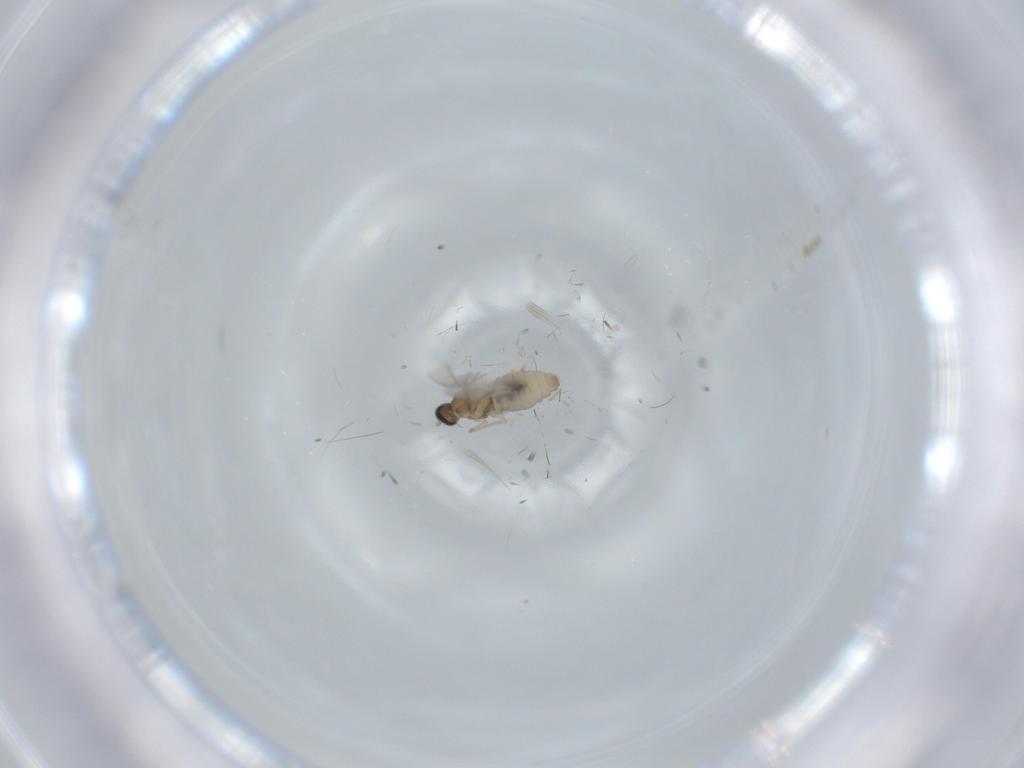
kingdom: Animalia
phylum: Arthropoda
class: Insecta
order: Diptera
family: Cecidomyiidae
